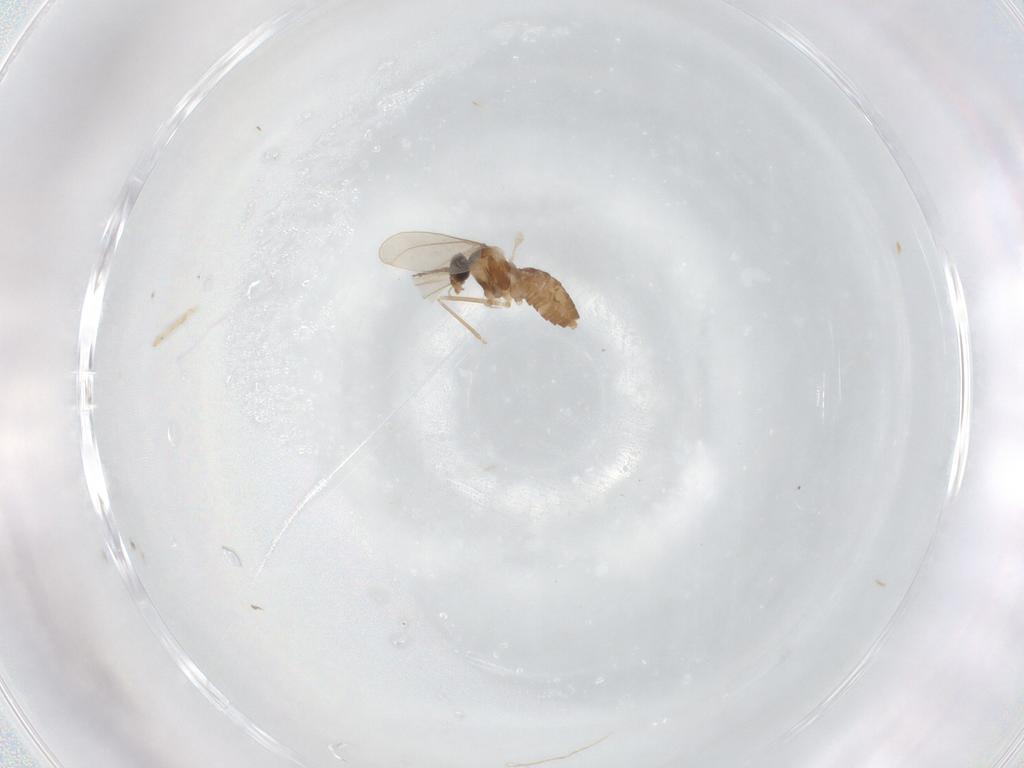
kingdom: Animalia
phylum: Arthropoda
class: Insecta
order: Diptera
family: Cecidomyiidae
